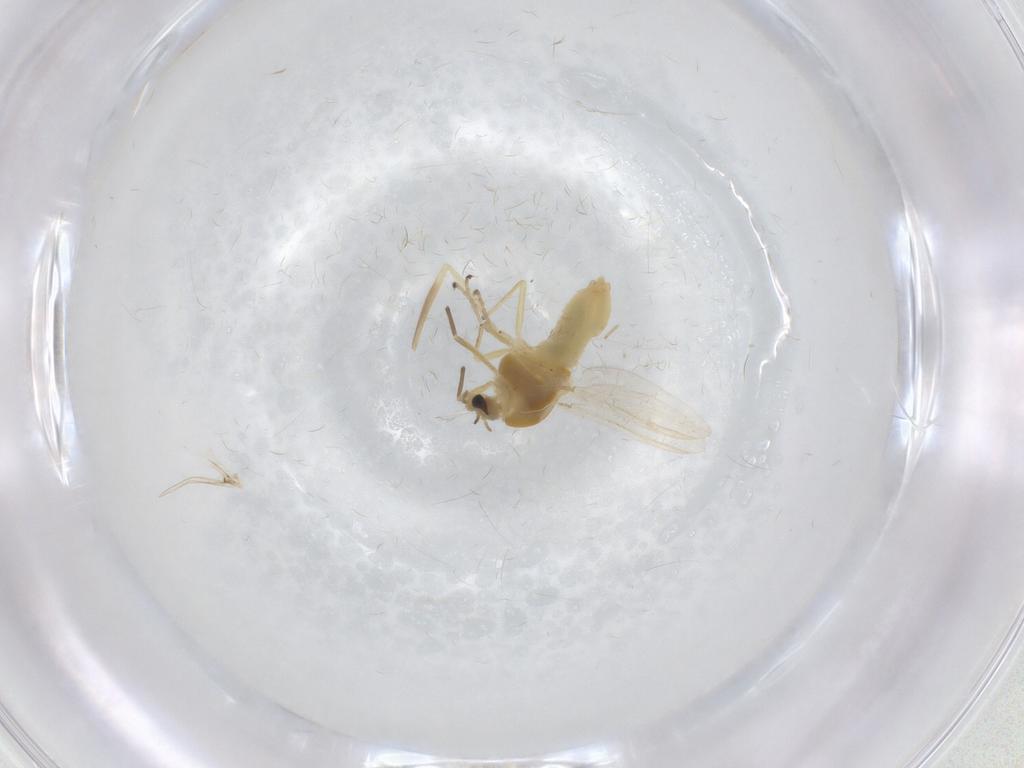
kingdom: Animalia
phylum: Arthropoda
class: Insecta
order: Diptera
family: Chironomidae
